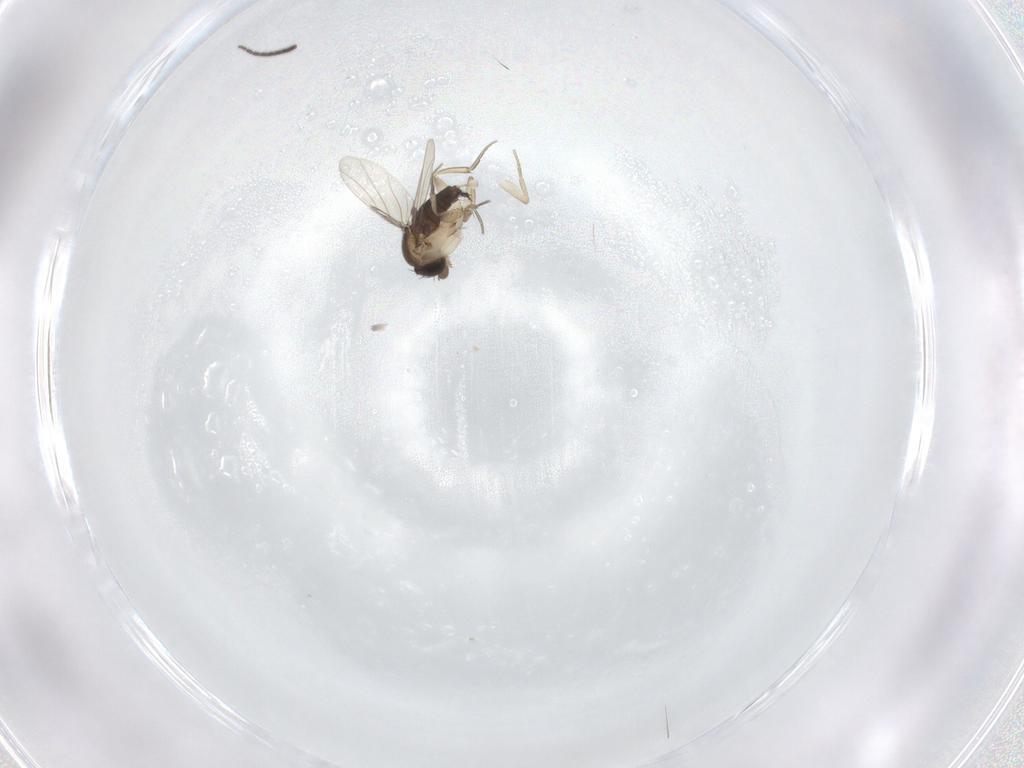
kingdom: Animalia
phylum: Arthropoda
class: Insecta
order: Diptera
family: Phoridae
